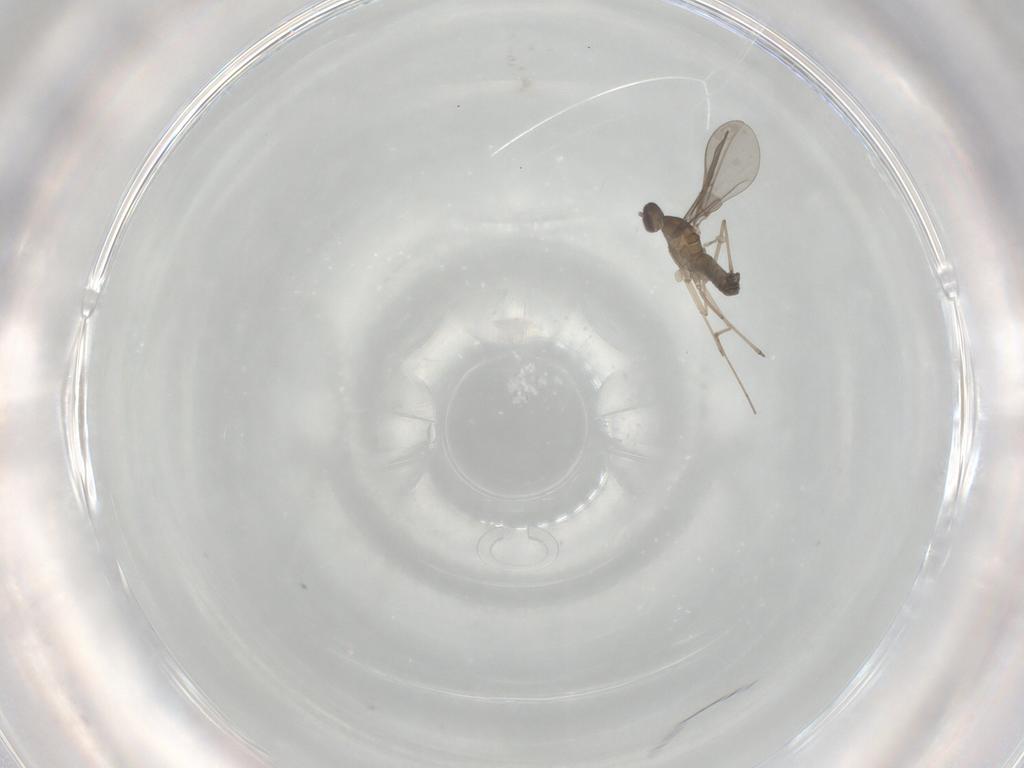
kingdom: Animalia
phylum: Arthropoda
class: Insecta
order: Diptera
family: Cecidomyiidae
